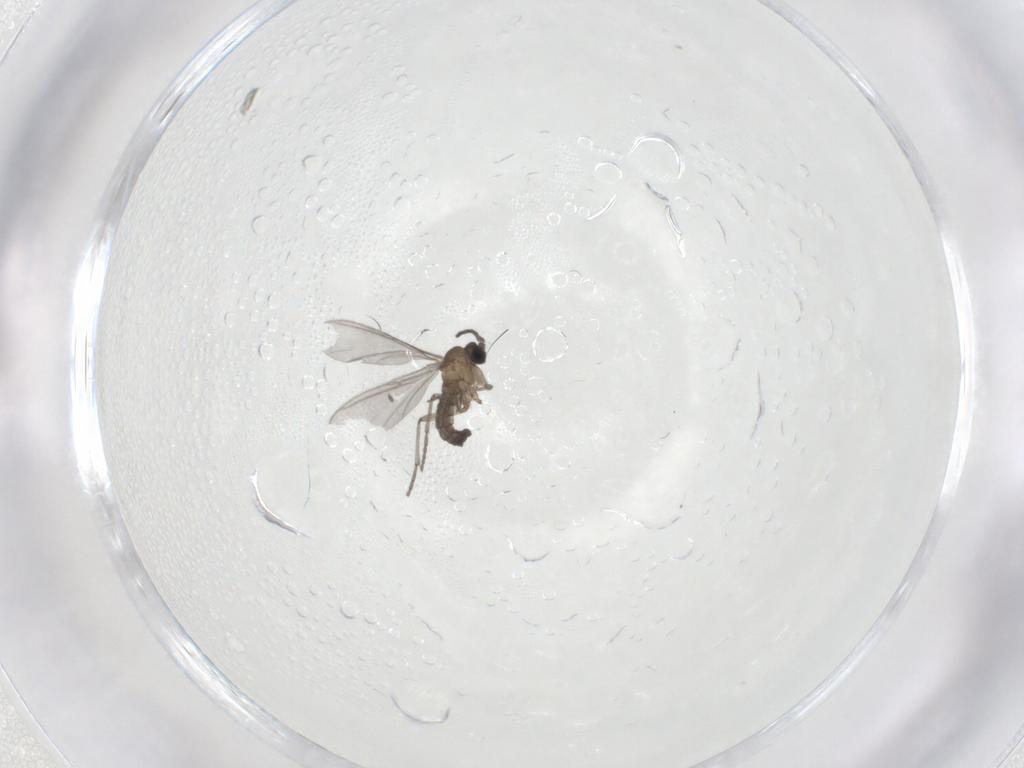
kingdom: Animalia
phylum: Arthropoda
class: Insecta
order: Diptera
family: Sciaridae
